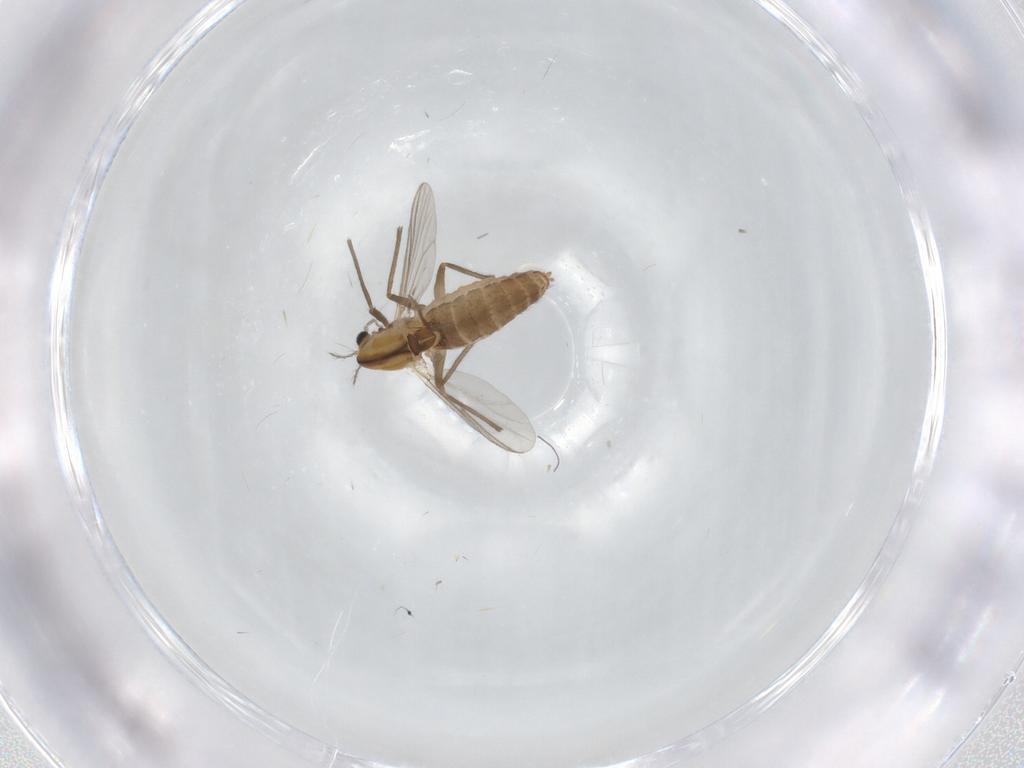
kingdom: Animalia
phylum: Arthropoda
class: Insecta
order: Diptera
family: Chironomidae
